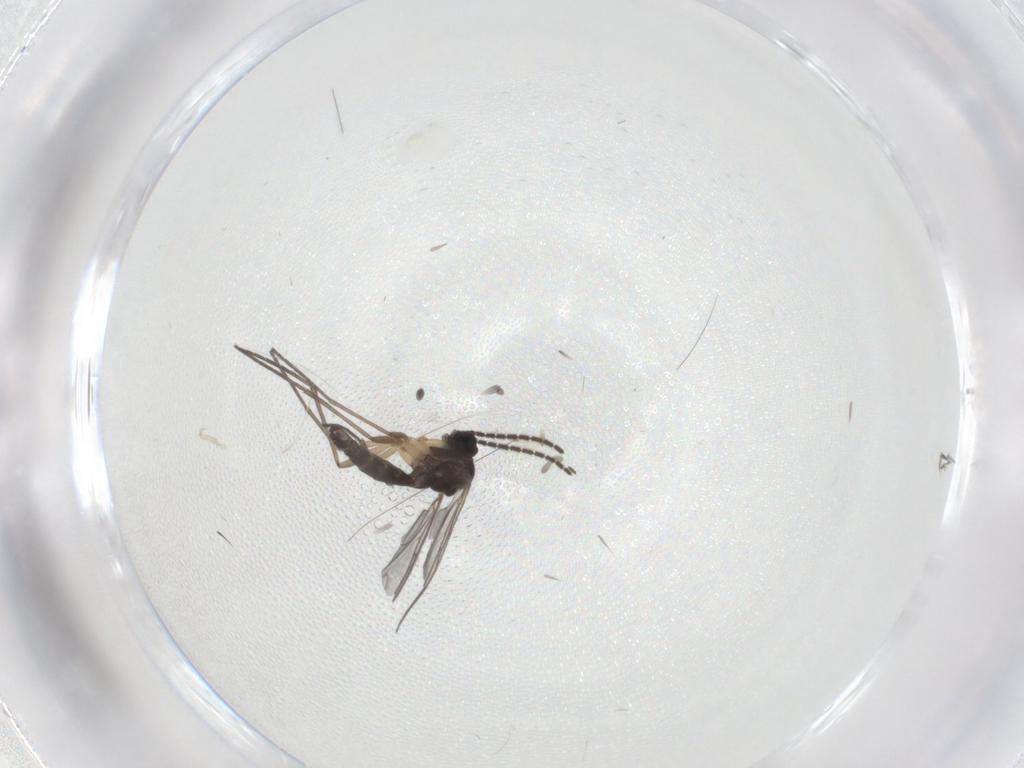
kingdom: Animalia
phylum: Arthropoda
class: Insecta
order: Diptera
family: Sciaridae
